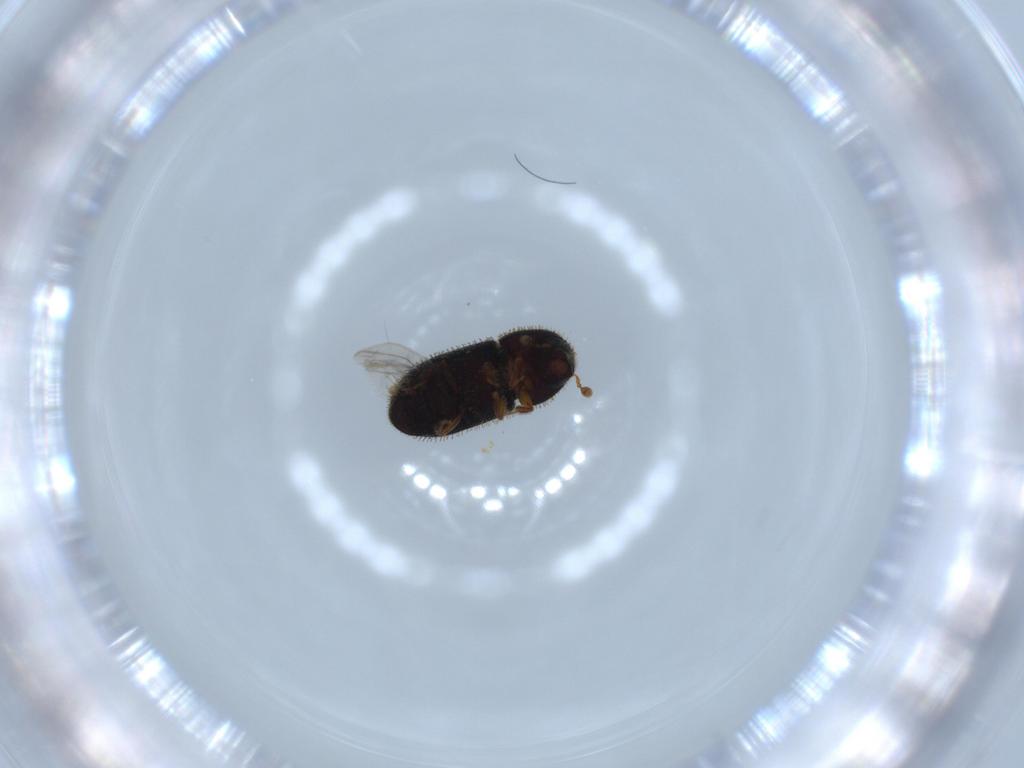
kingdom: Animalia
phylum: Arthropoda
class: Insecta
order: Coleoptera
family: Curculionidae
